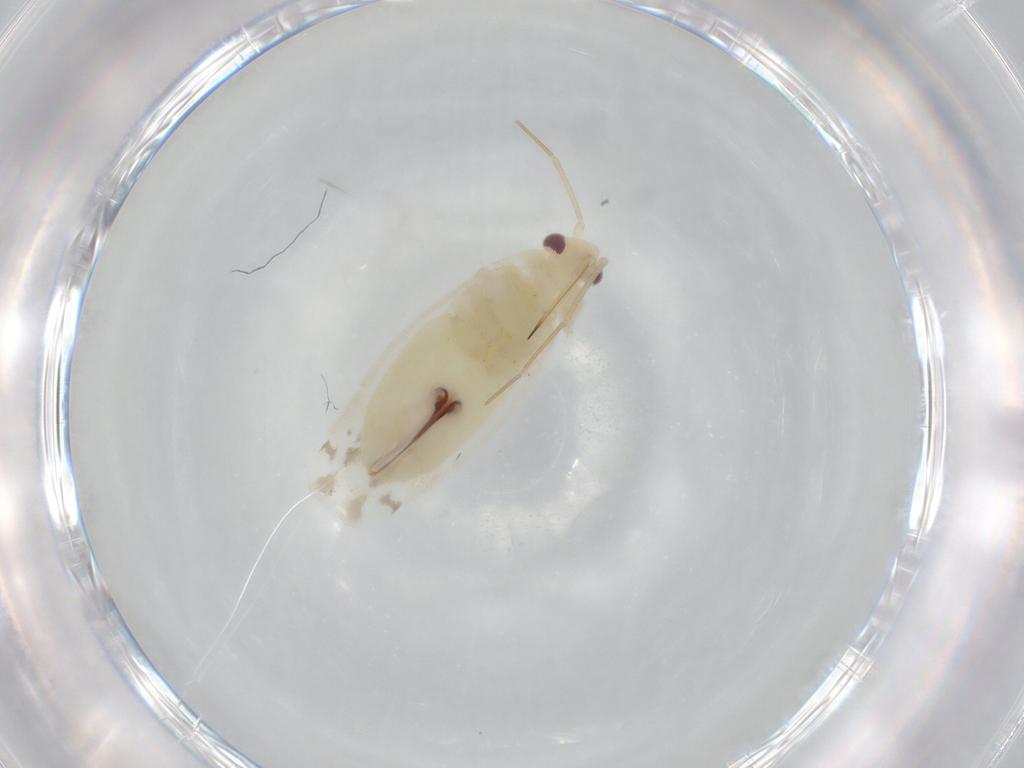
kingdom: Animalia
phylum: Arthropoda
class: Insecta
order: Hemiptera
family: Miridae
